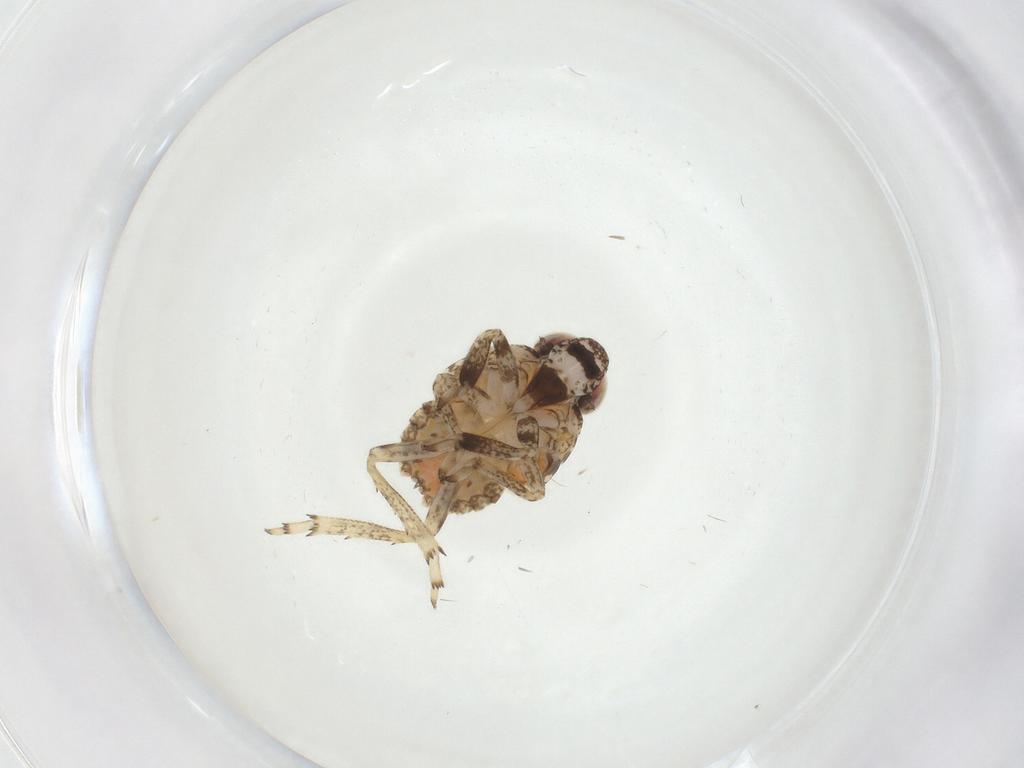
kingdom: Animalia
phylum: Arthropoda
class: Insecta
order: Hemiptera
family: Issidae
